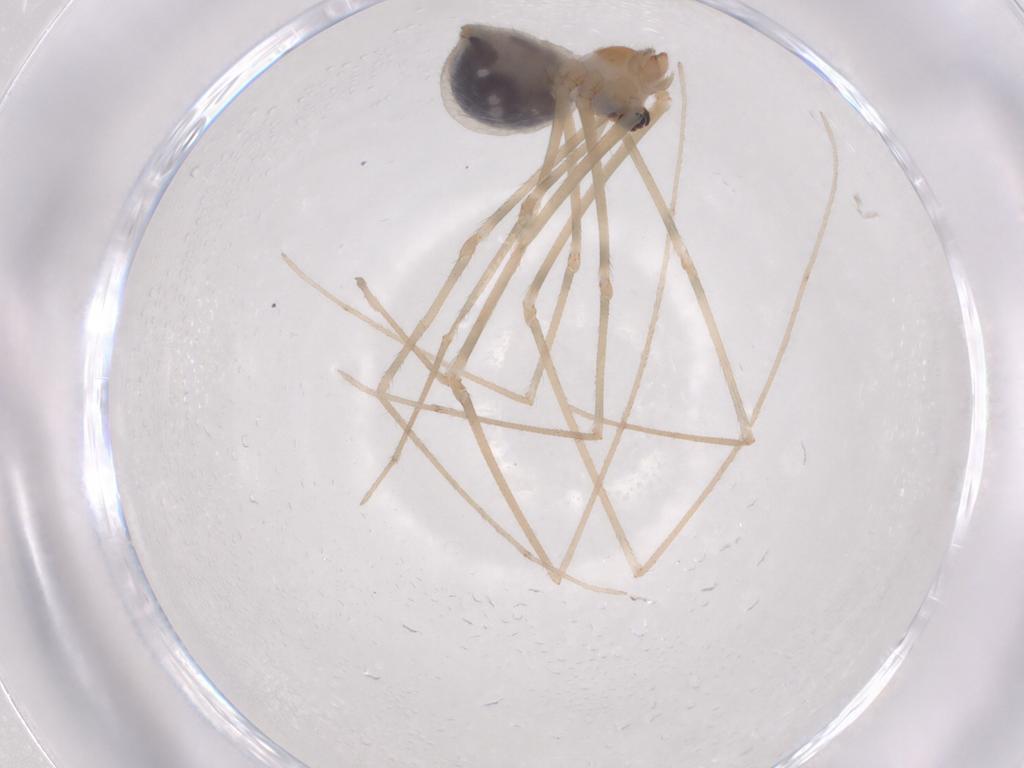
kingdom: Animalia
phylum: Arthropoda
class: Arachnida
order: Araneae
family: Pholcidae
